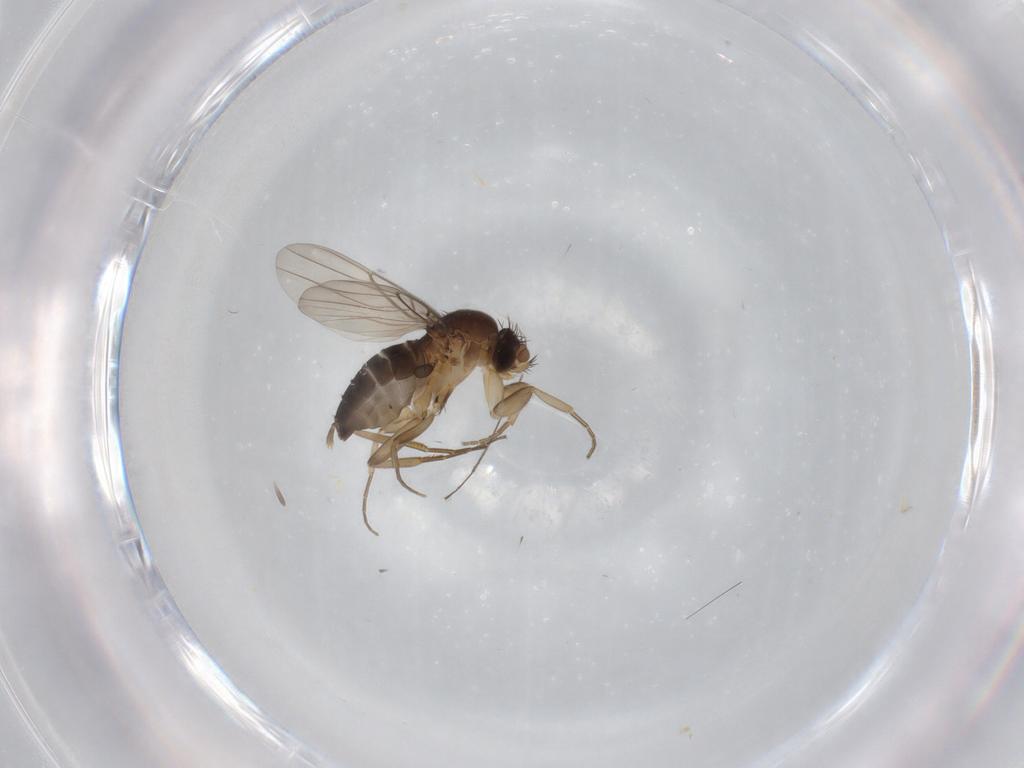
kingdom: Animalia
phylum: Arthropoda
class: Insecta
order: Diptera
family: Phoridae
